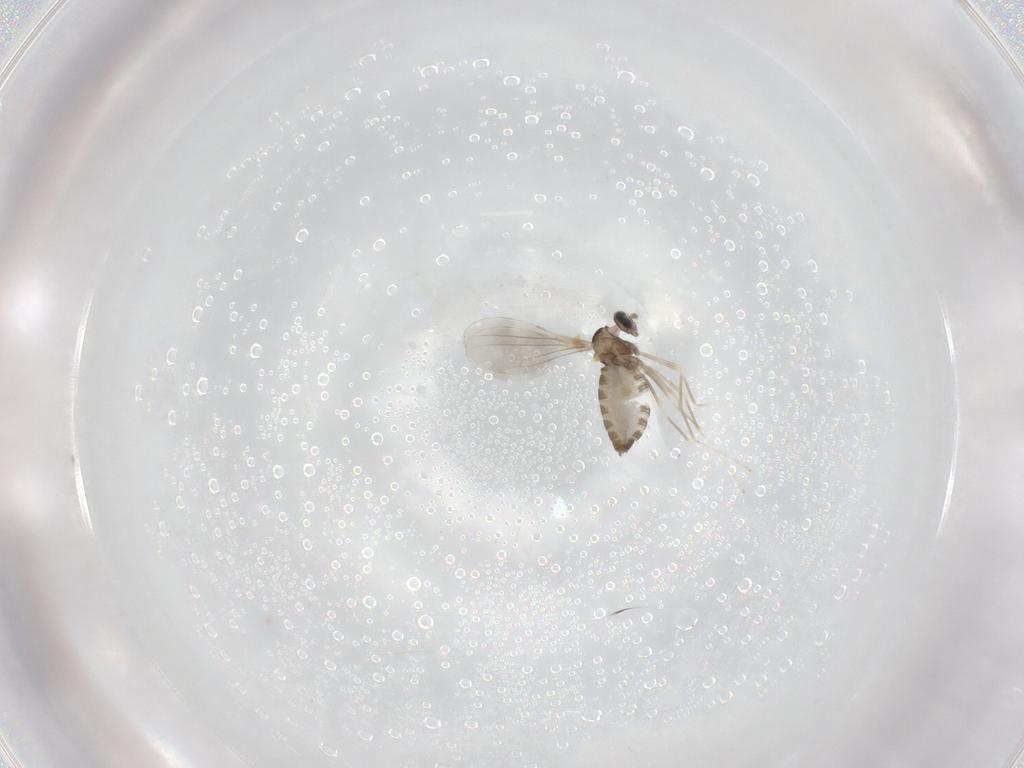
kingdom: Animalia
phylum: Arthropoda
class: Insecta
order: Diptera
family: Cecidomyiidae
